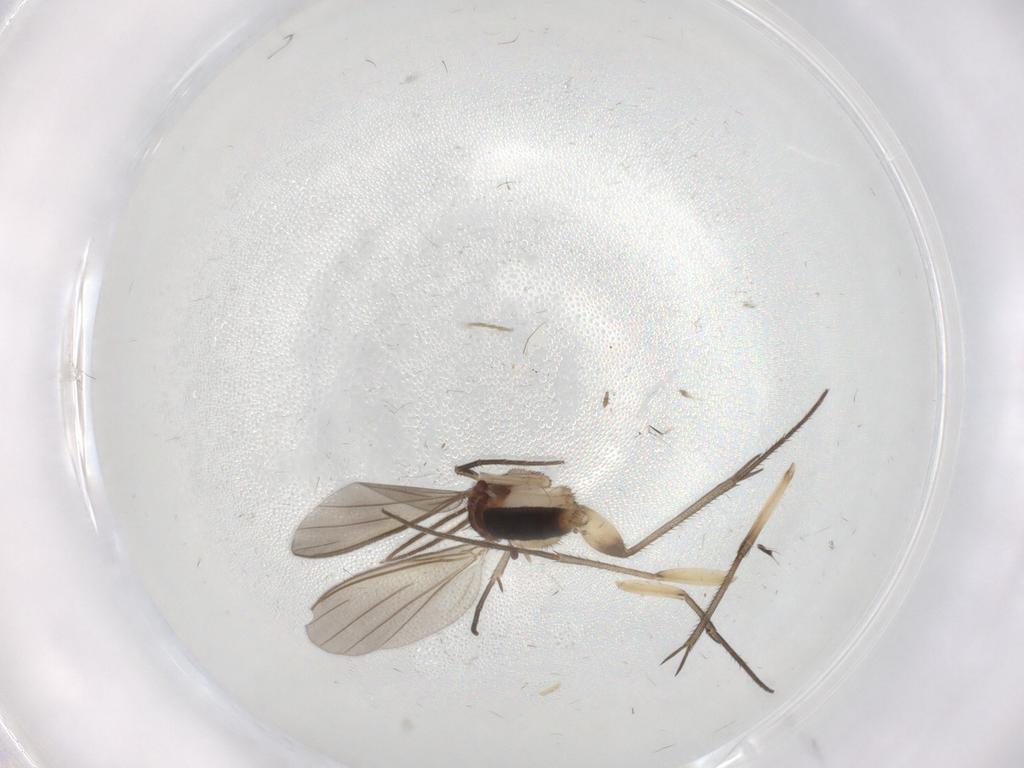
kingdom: Animalia
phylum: Arthropoda
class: Insecta
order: Diptera
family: Mycetophilidae
